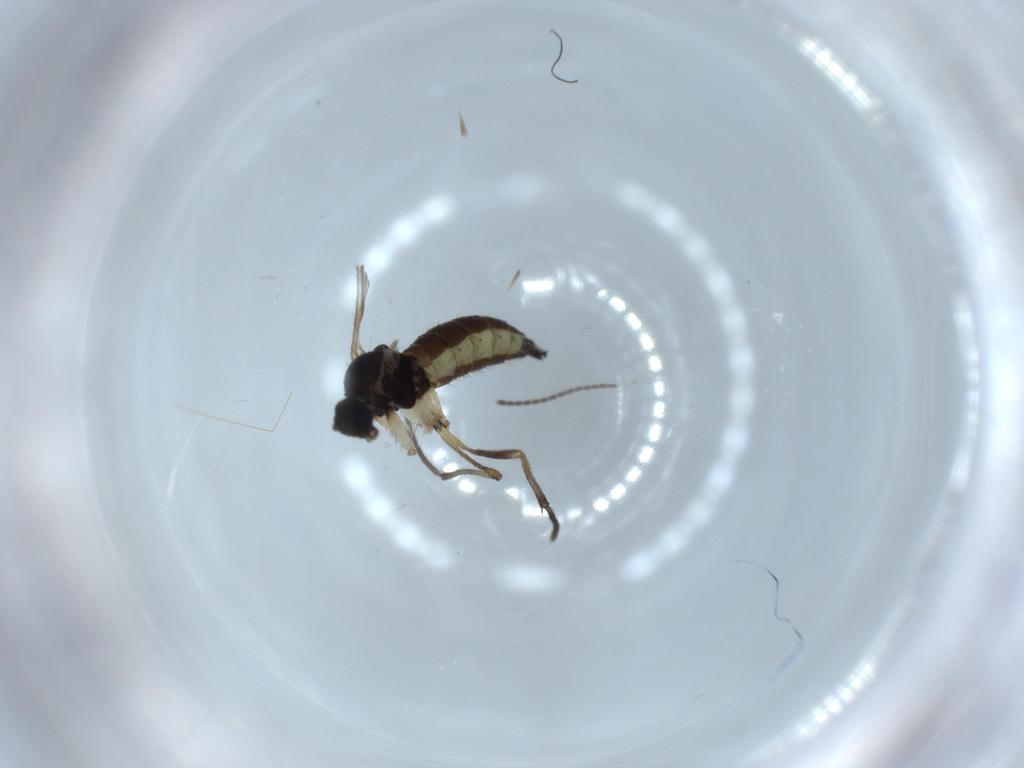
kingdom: Animalia
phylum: Arthropoda
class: Insecta
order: Diptera
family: Sciaridae
